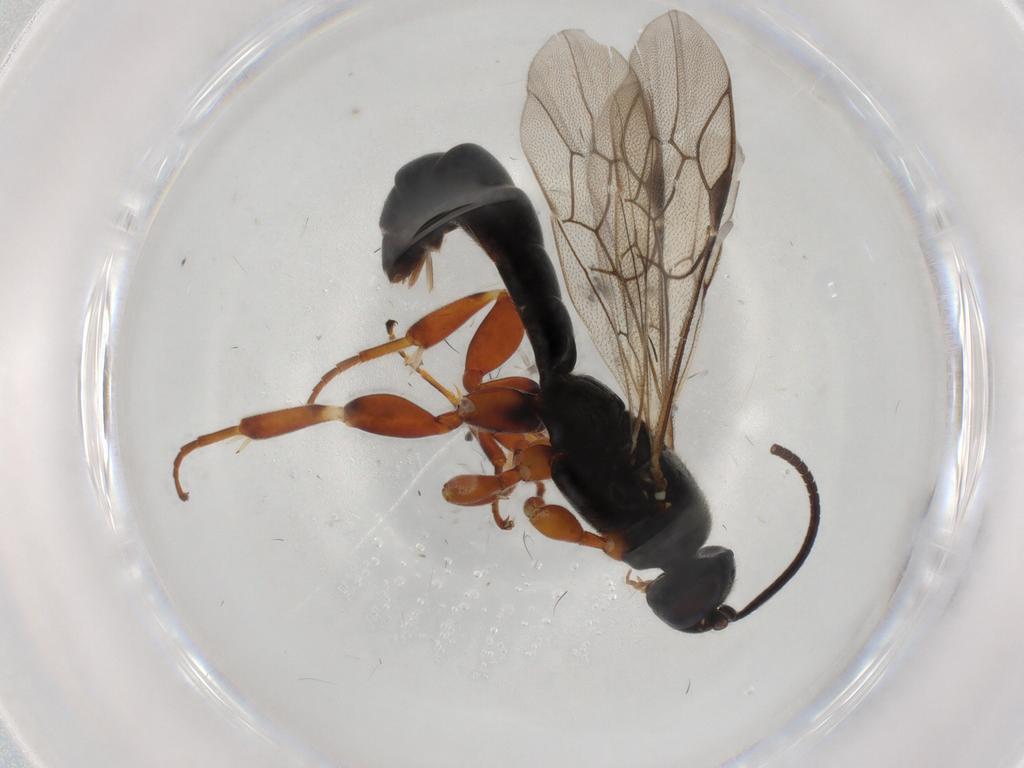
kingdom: Animalia
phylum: Arthropoda
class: Insecta
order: Hymenoptera
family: Ichneumonidae
